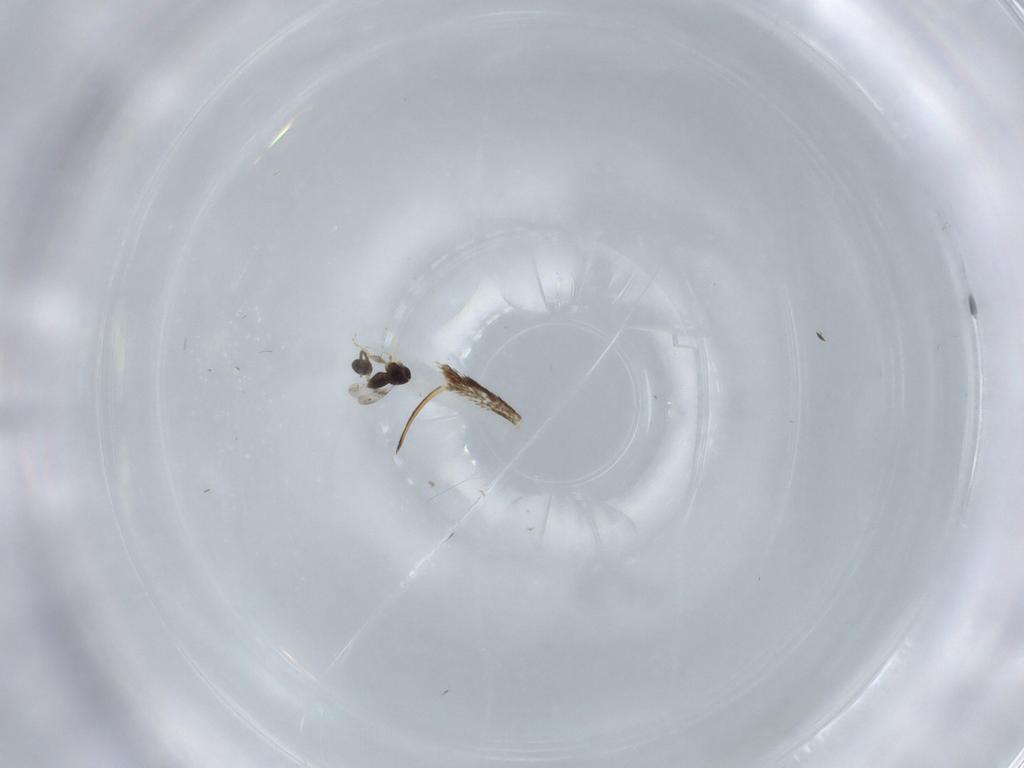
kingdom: Animalia
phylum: Arthropoda
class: Insecta
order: Hymenoptera
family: Ceraphronidae
